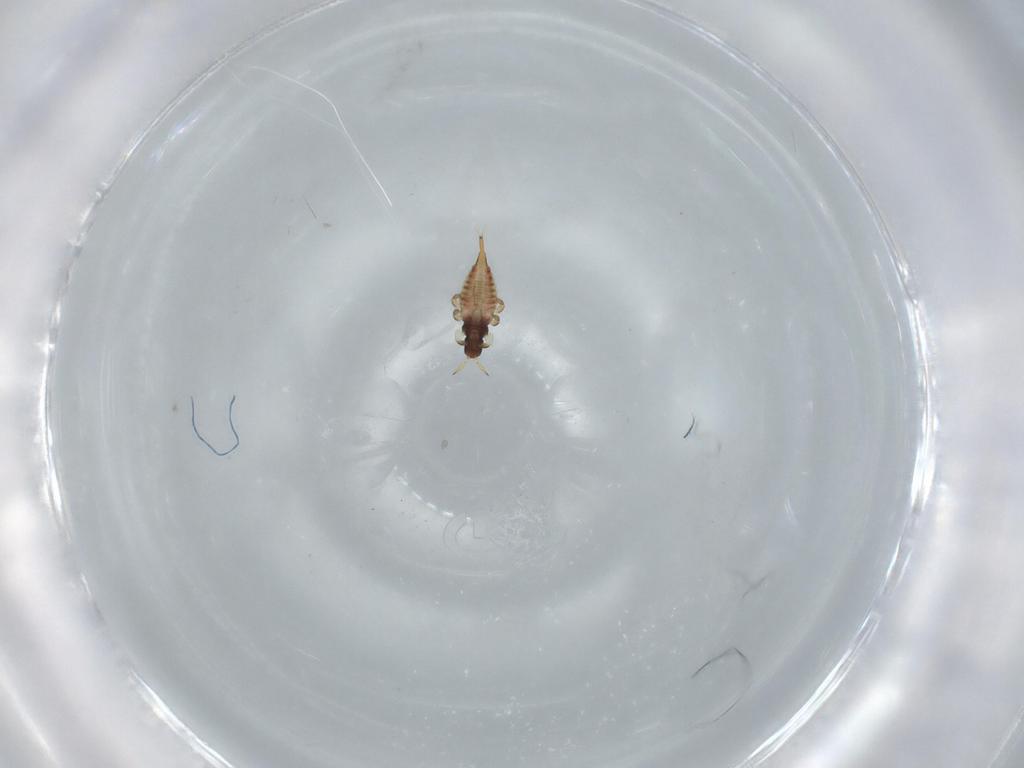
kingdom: Animalia
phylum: Arthropoda
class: Insecta
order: Thysanoptera
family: Phlaeothripidae
